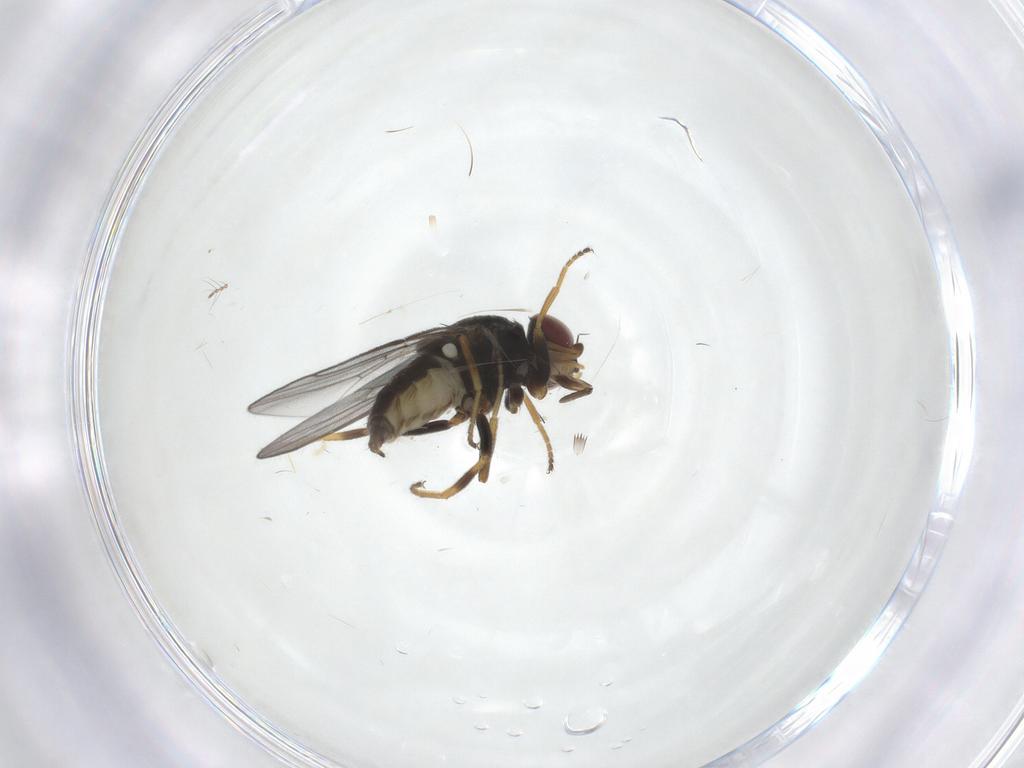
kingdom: Animalia
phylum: Arthropoda
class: Insecta
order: Diptera
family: Chloropidae
